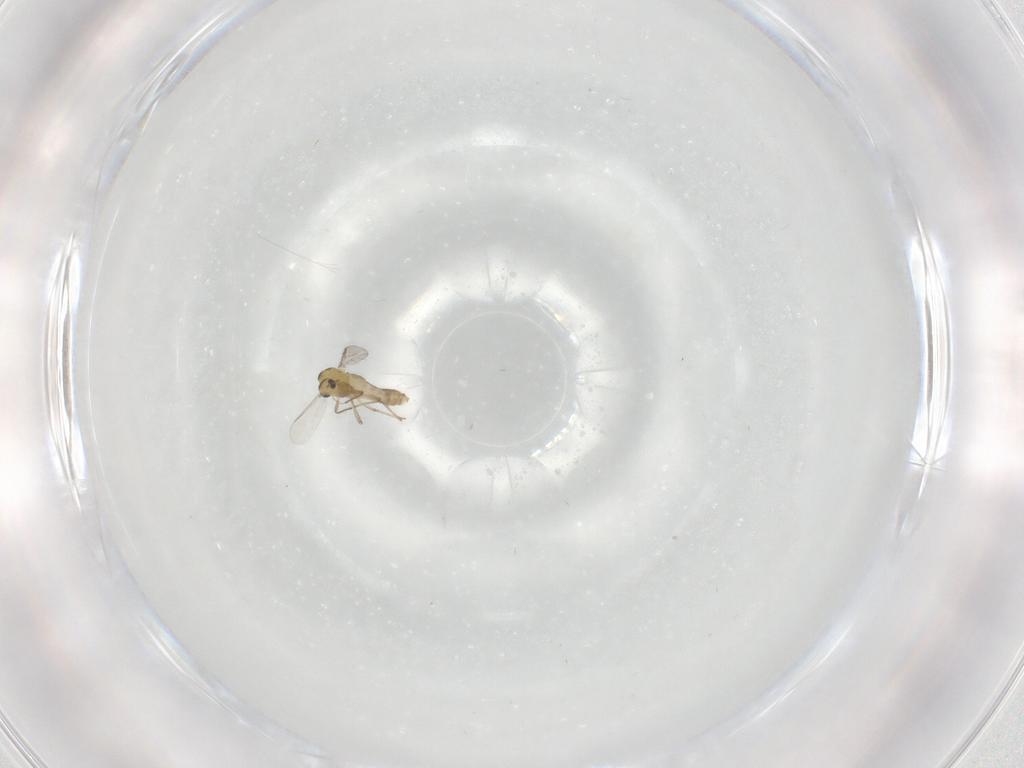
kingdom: Animalia
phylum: Arthropoda
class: Insecta
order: Diptera
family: Chironomidae
